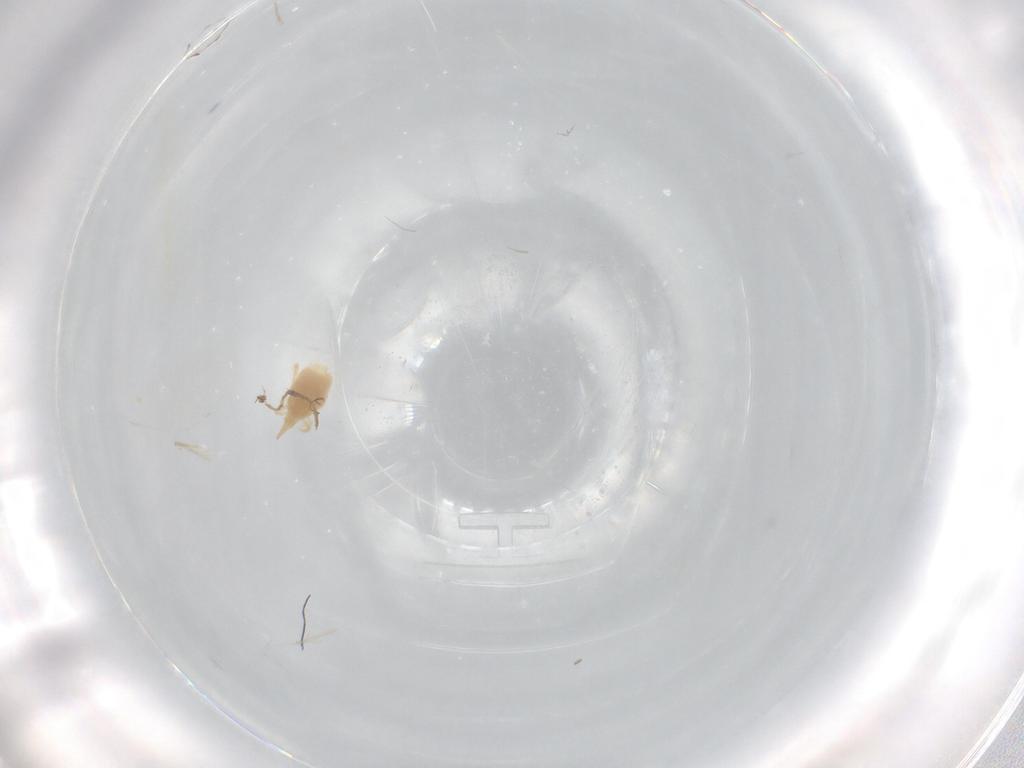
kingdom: Animalia
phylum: Arthropoda
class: Arachnida
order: Trombidiformes
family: Bdellidae
